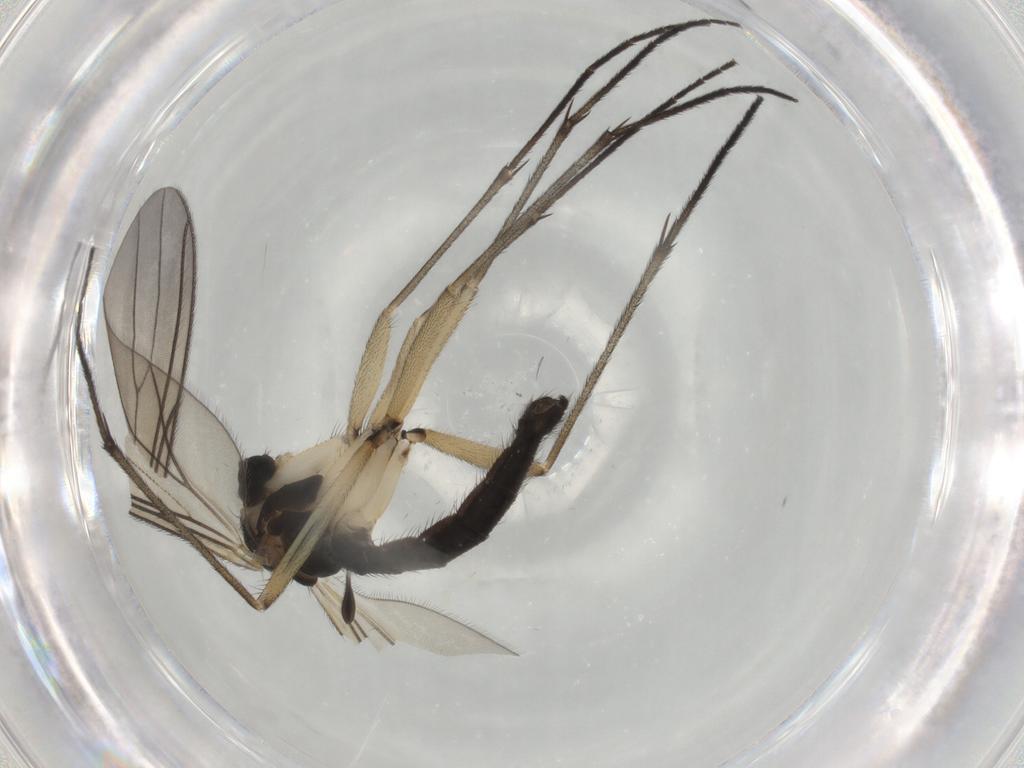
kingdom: Animalia
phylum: Arthropoda
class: Insecta
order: Diptera
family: Sciaridae
